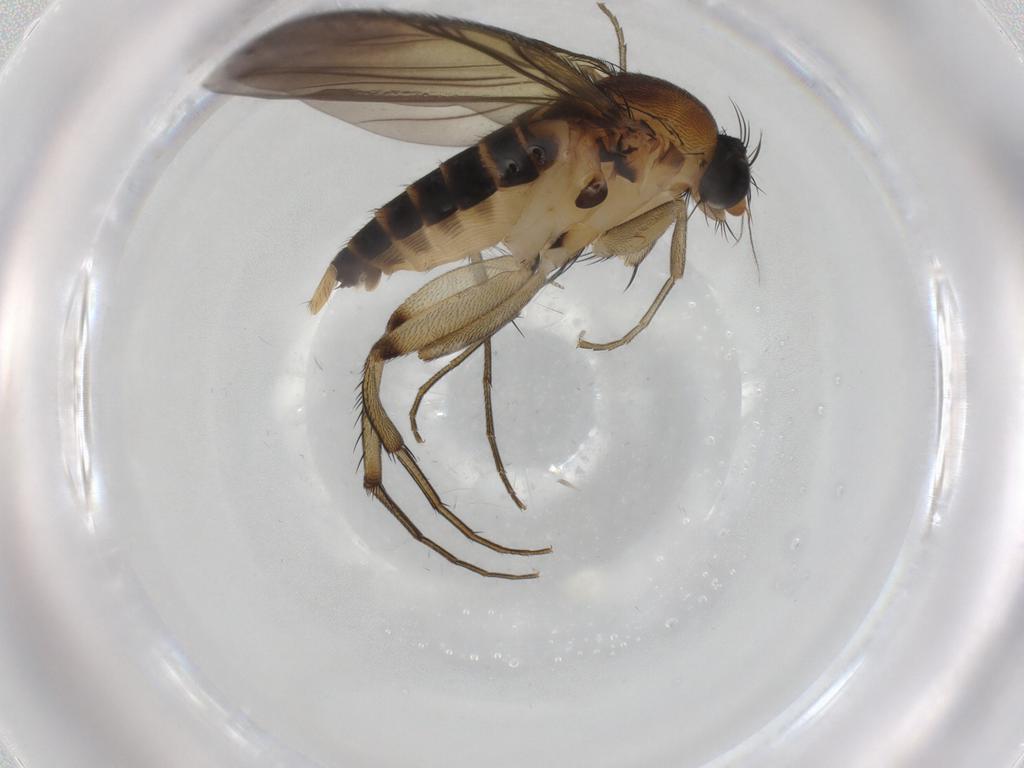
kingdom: Animalia
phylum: Arthropoda
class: Insecta
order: Diptera
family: Phoridae
